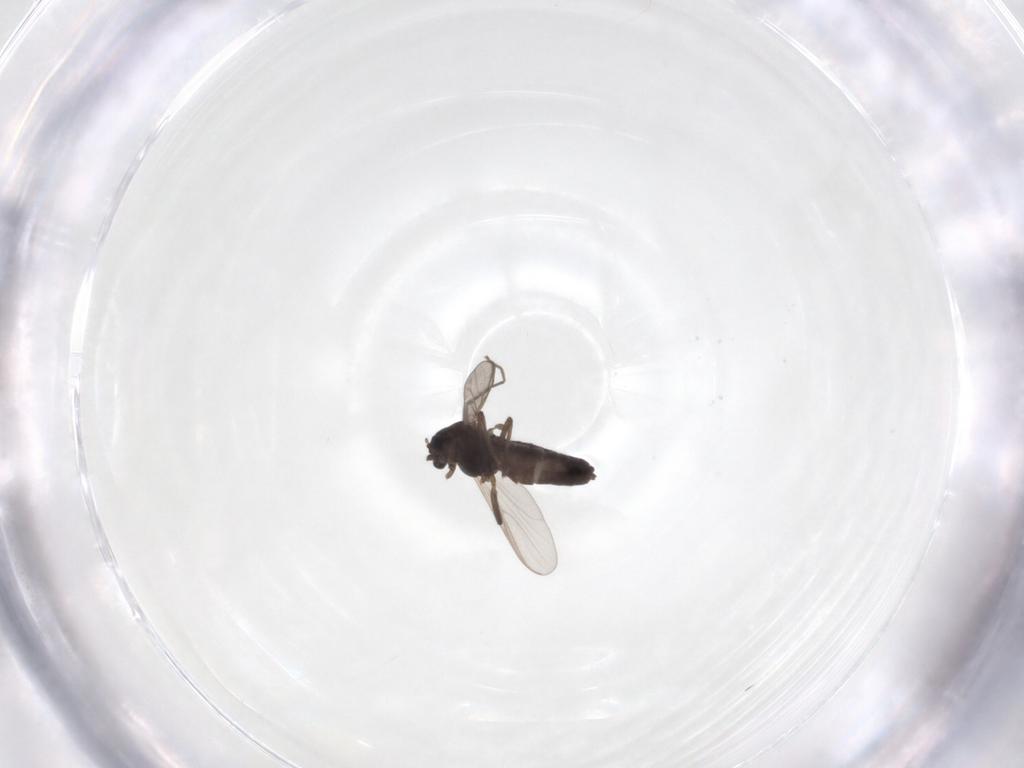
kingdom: Animalia
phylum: Arthropoda
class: Insecta
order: Diptera
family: Chironomidae
